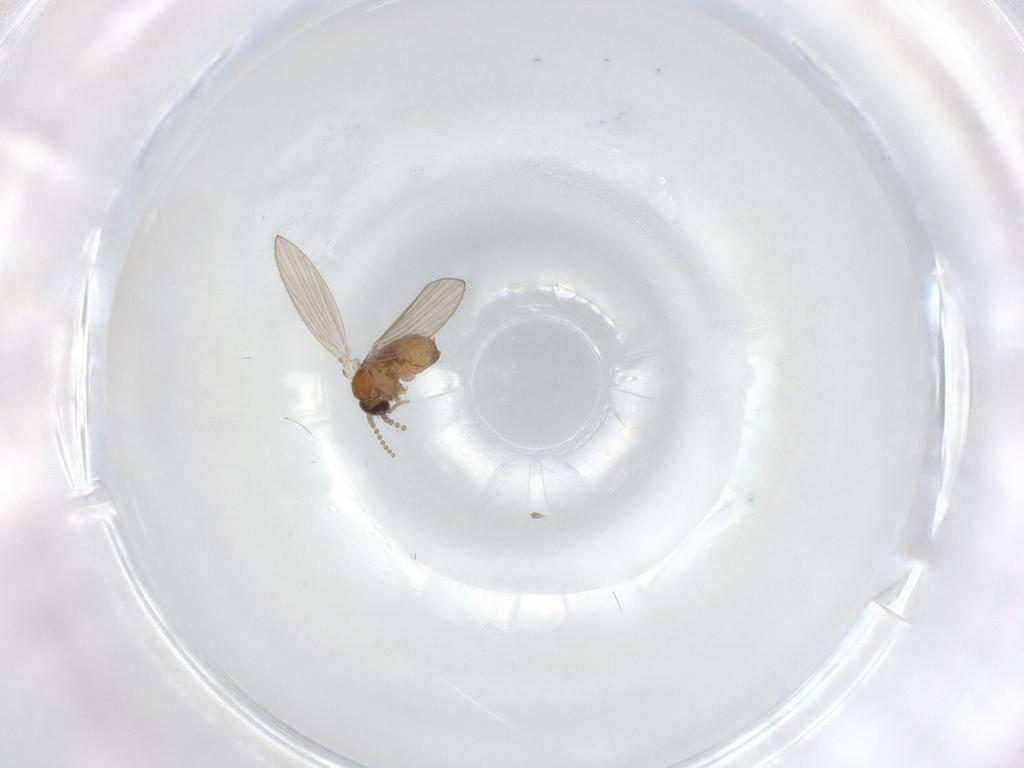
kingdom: Animalia
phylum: Arthropoda
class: Insecta
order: Diptera
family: Psychodidae
